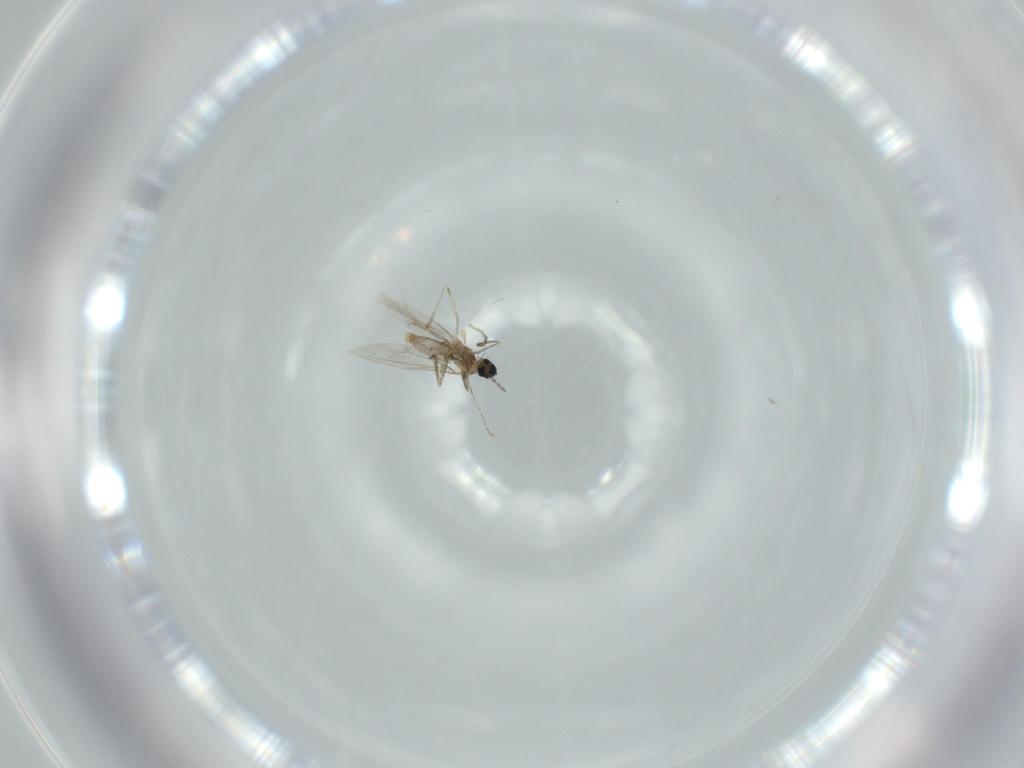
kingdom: Animalia
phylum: Arthropoda
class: Insecta
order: Diptera
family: Cecidomyiidae
